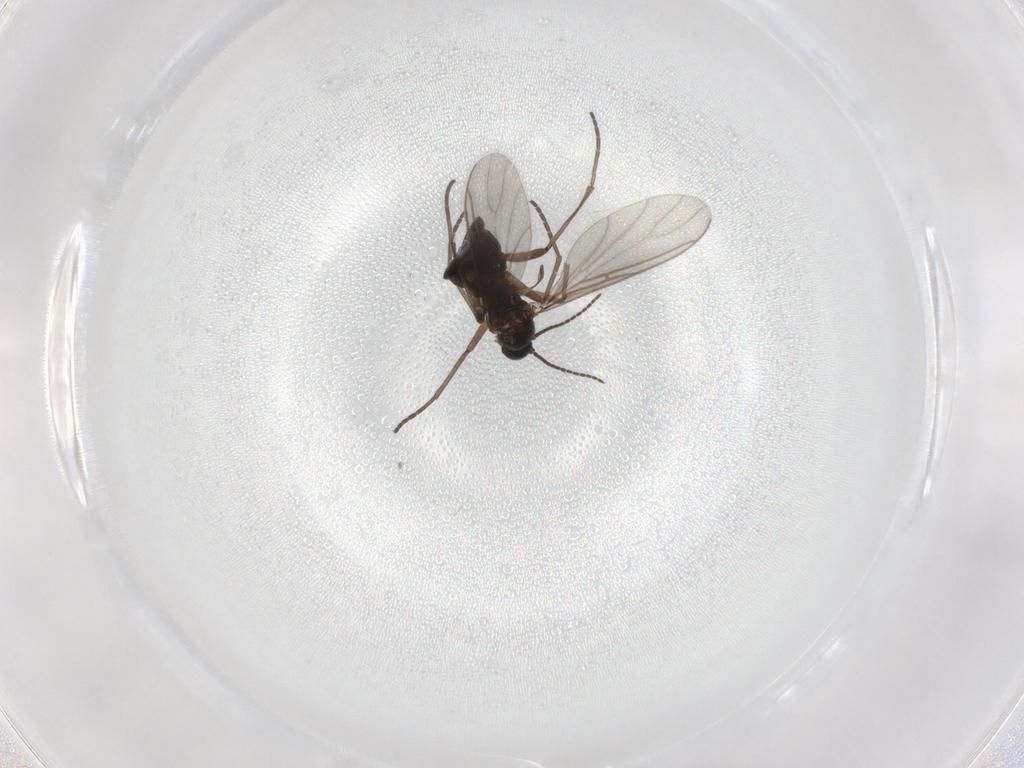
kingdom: Animalia
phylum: Arthropoda
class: Insecta
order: Diptera
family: Sciaridae
